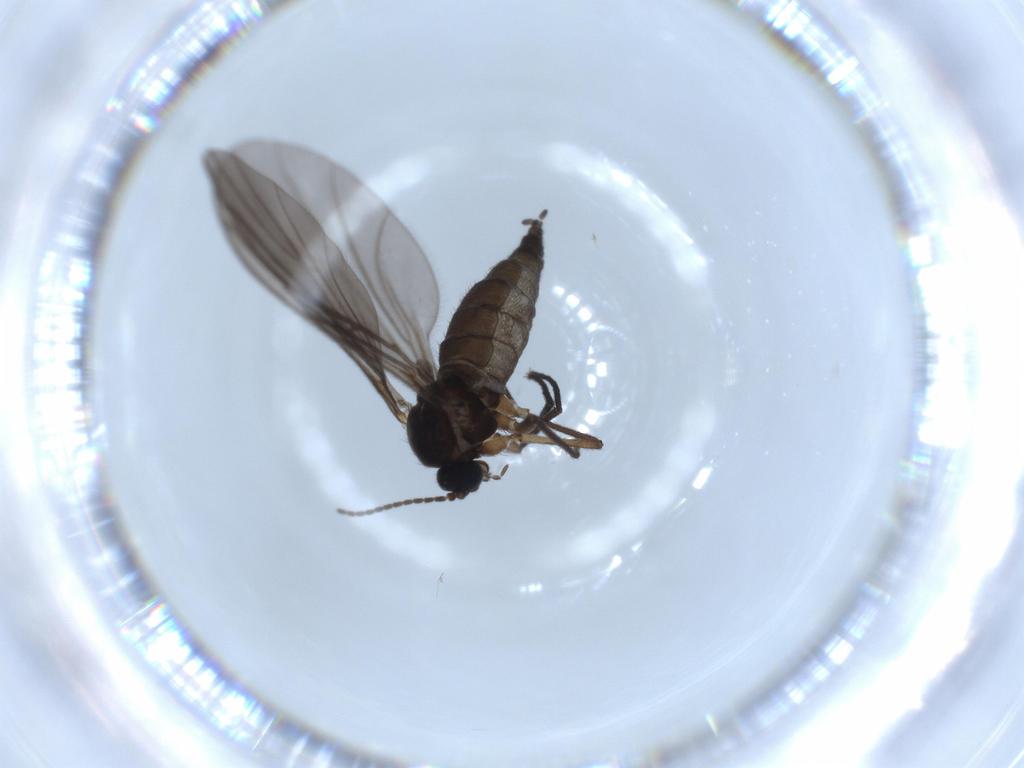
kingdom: Animalia
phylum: Arthropoda
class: Insecta
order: Diptera
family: Sciaridae
